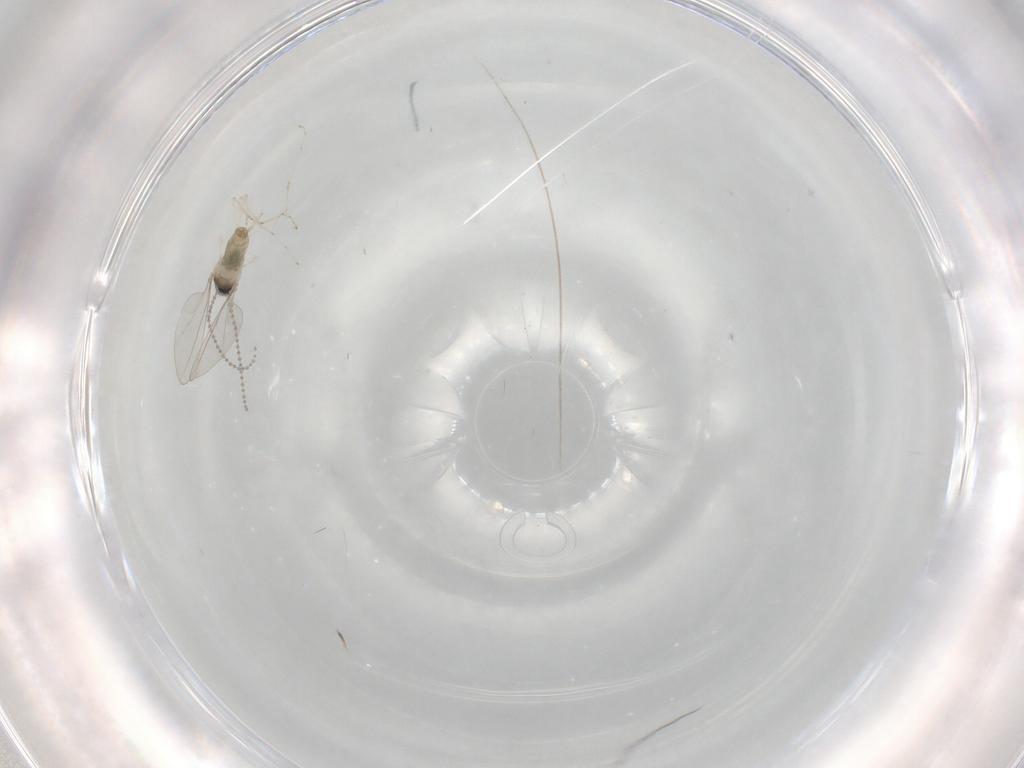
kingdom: Animalia
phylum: Arthropoda
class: Insecta
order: Diptera
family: Cecidomyiidae
